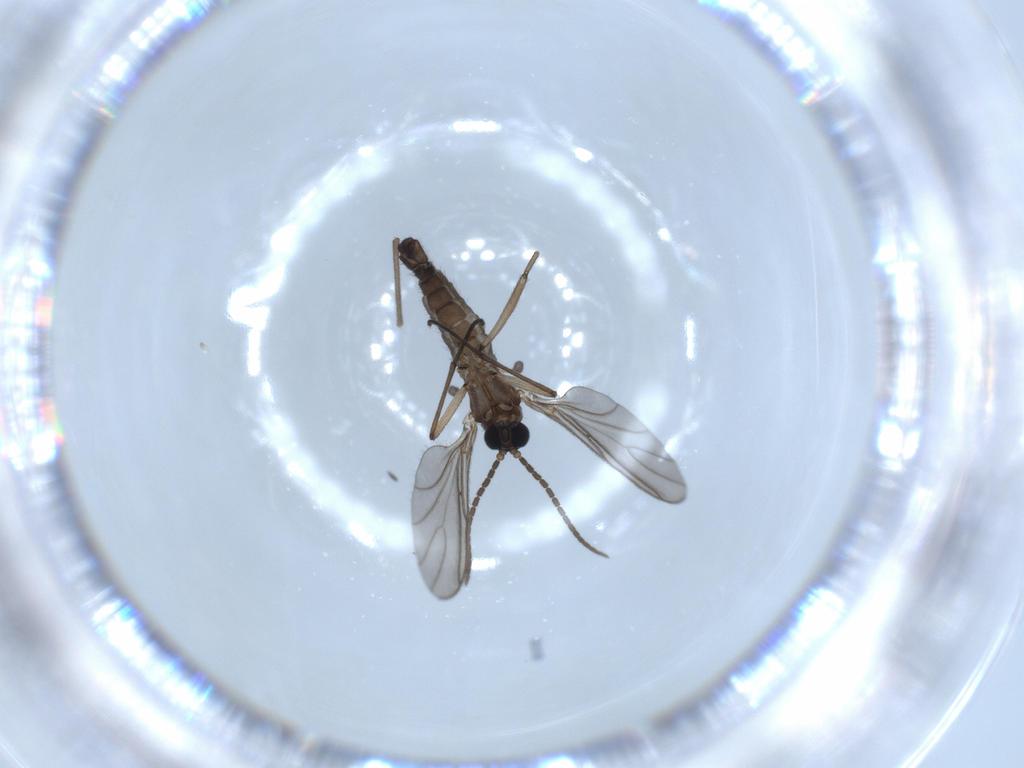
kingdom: Animalia
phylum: Arthropoda
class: Insecta
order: Diptera
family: Sciaridae
